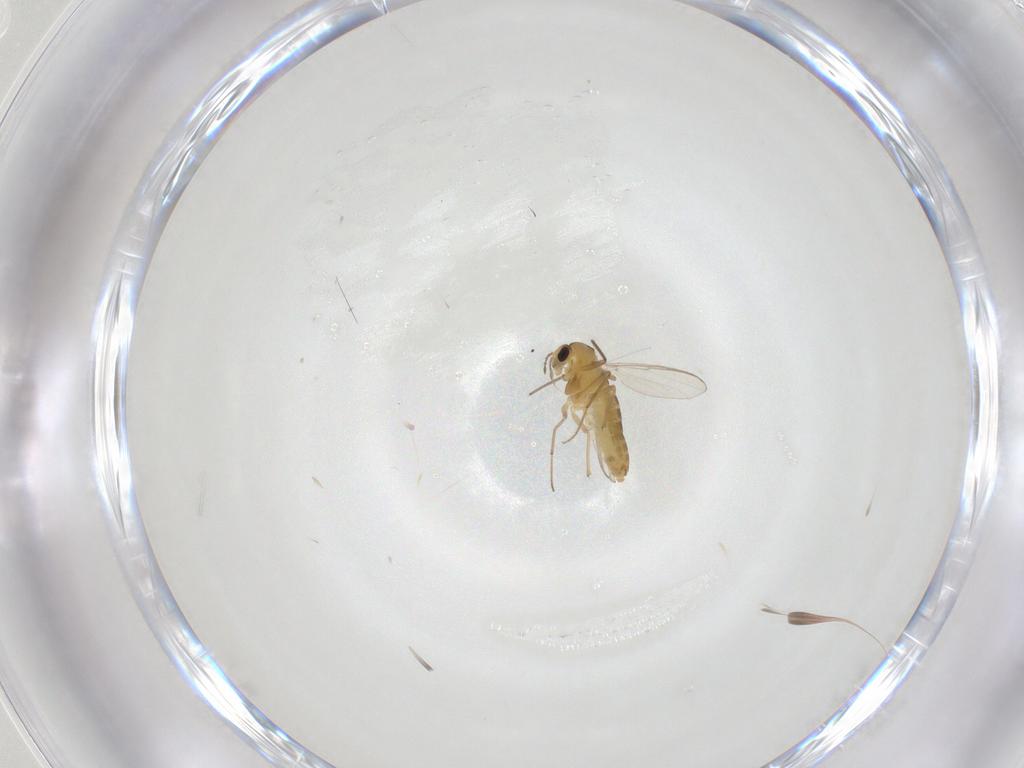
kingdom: Animalia
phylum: Arthropoda
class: Insecta
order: Diptera
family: Chironomidae
